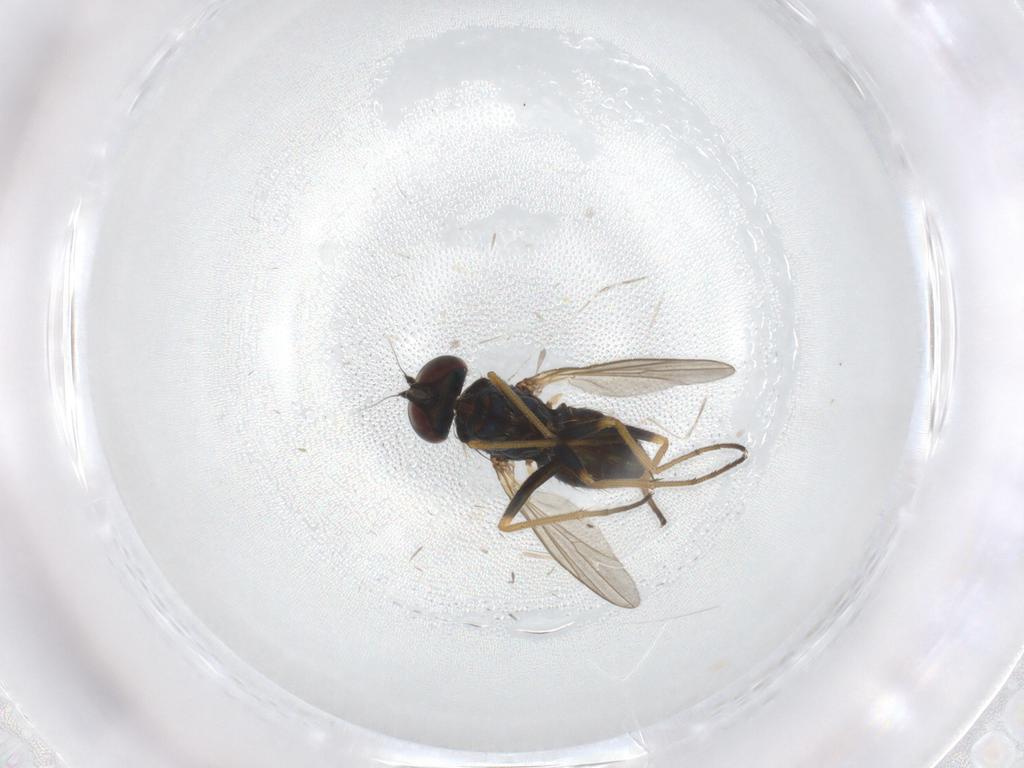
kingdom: Animalia
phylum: Arthropoda
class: Insecta
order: Diptera
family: Dolichopodidae
